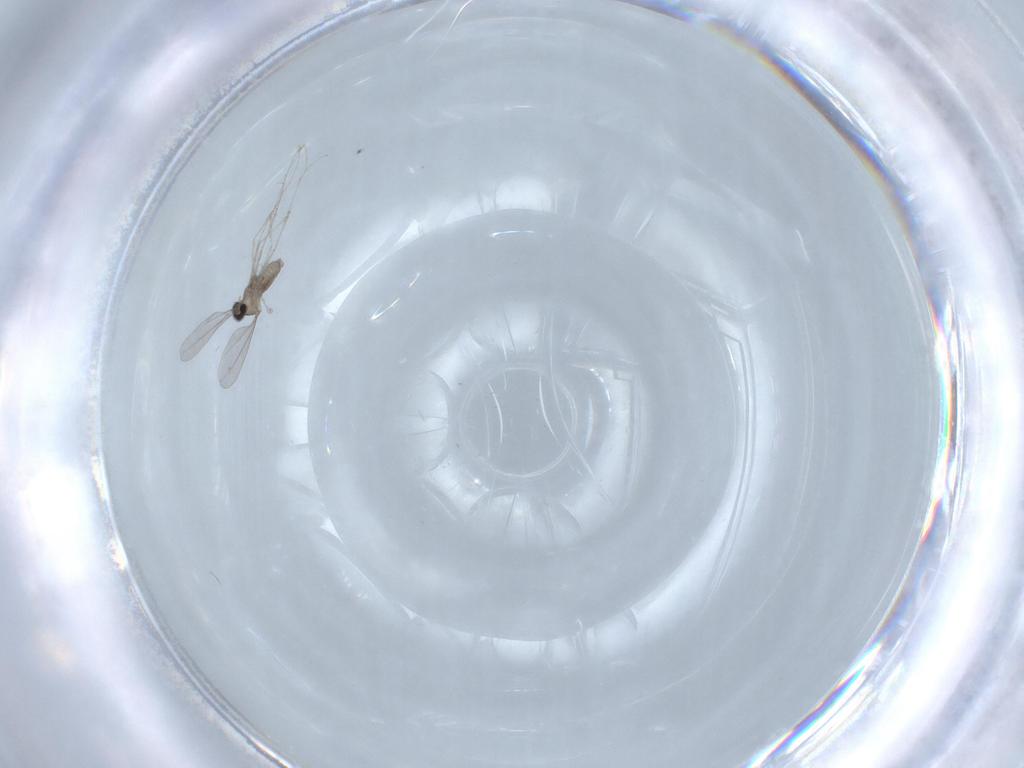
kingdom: Animalia
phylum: Arthropoda
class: Insecta
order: Diptera
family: Cecidomyiidae
